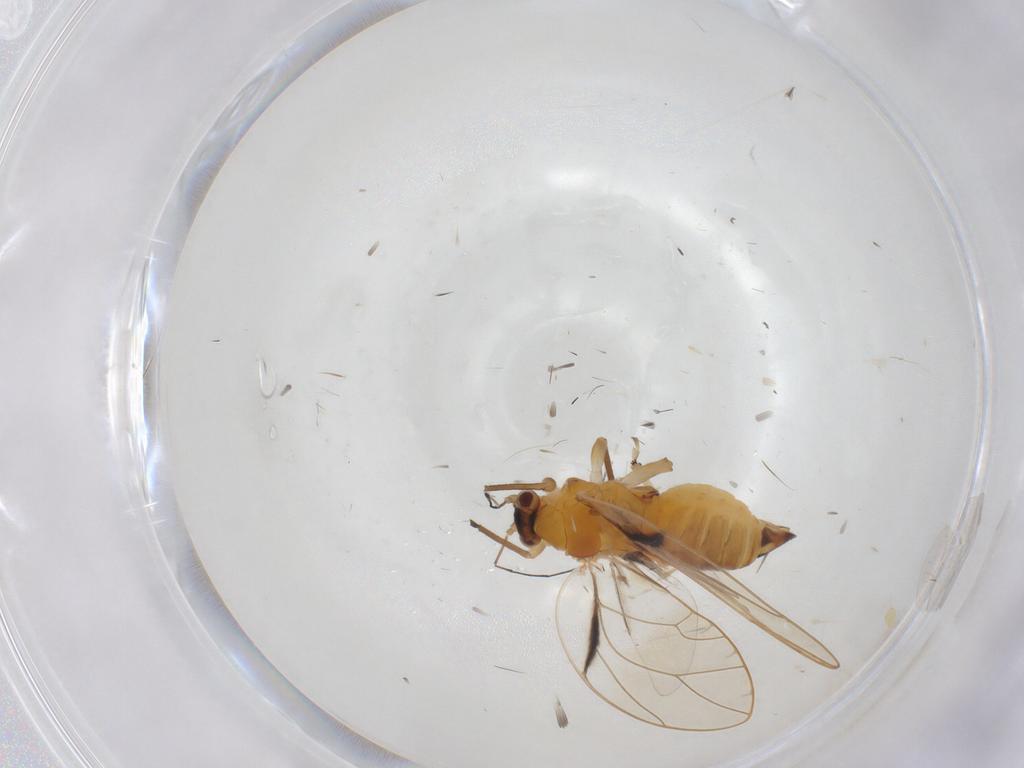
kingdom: Animalia
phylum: Arthropoda
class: Insecta
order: Hemiptera
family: Psylloidea_incertae_sedis
